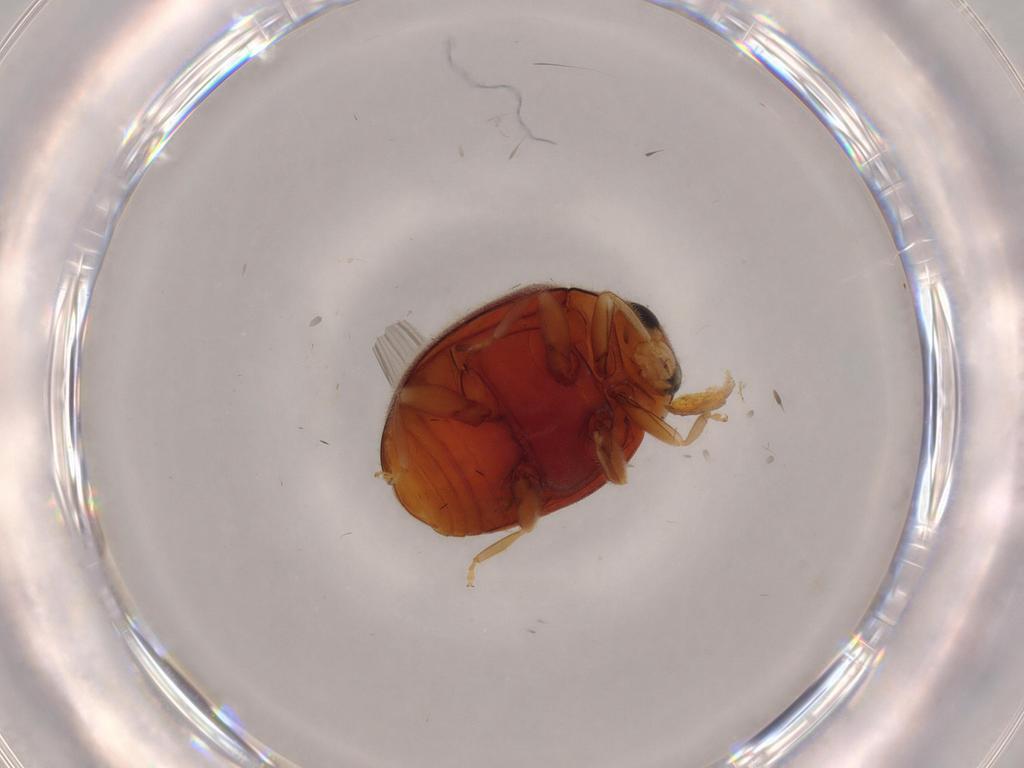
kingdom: Animalia
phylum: Arthropoda
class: Insecta
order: Coleoptera
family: Coccinellidae
